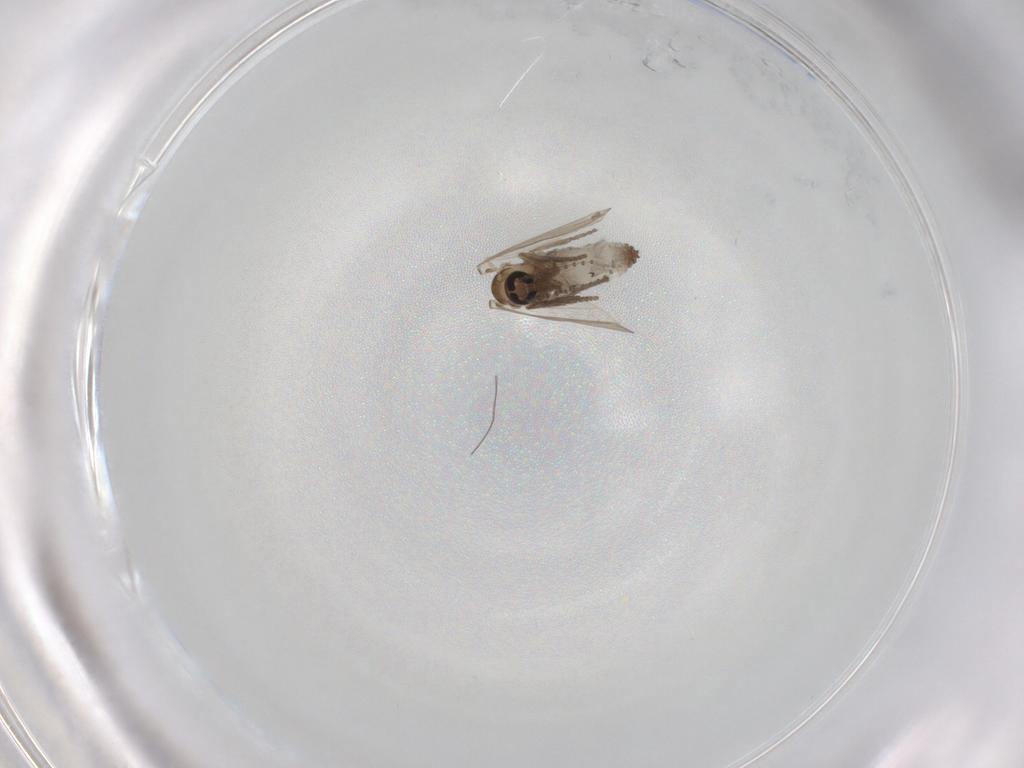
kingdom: Animalia
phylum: Arthropoda
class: Insecta
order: Diptera
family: Psychodidae
